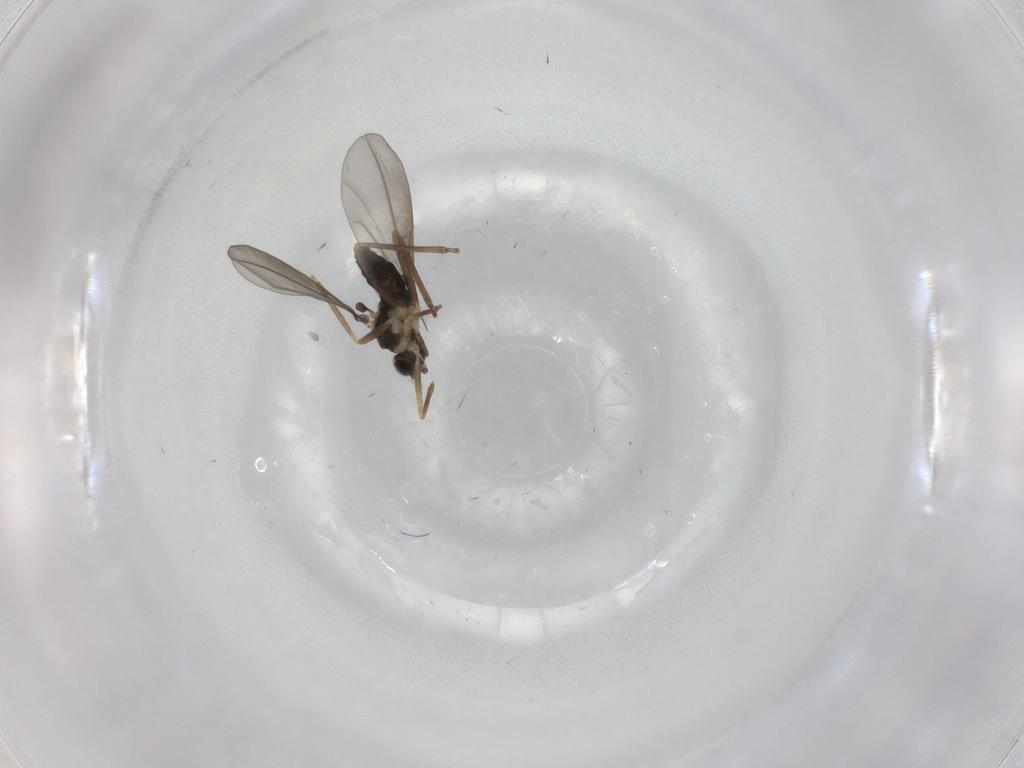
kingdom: Animalia
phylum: Arthropoda
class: Insecta
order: Diptera
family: Cecidomyiidae
